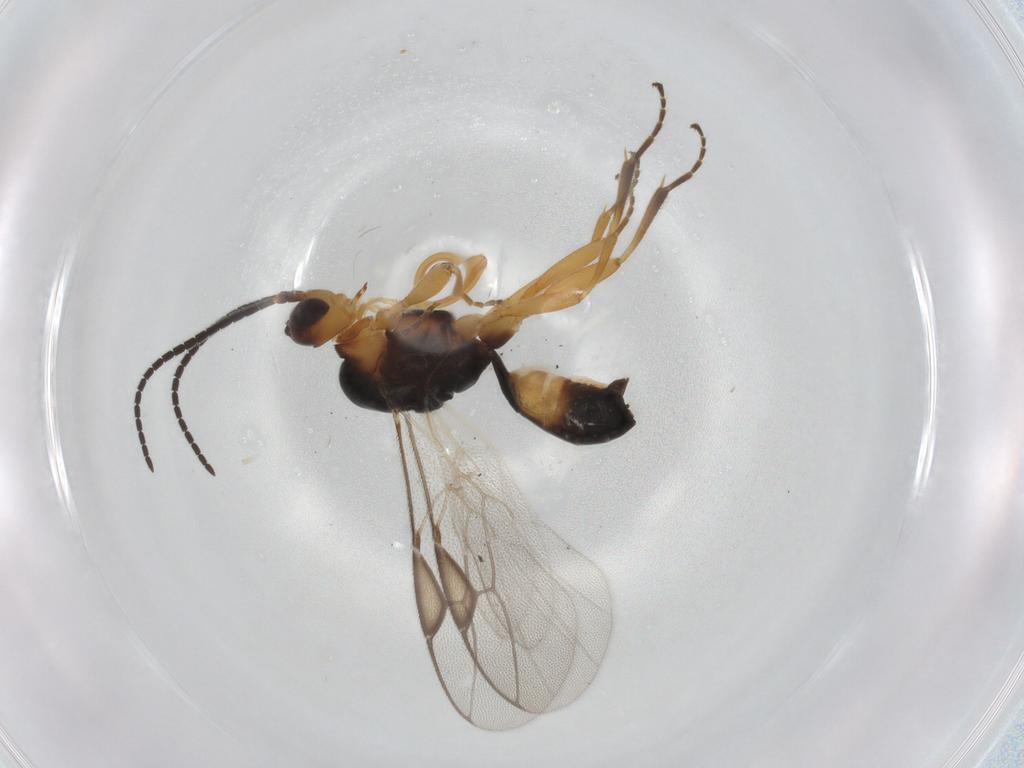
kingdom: Animalia
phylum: Arthropoda
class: Insecta
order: Hymenoptera
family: Braconidae
